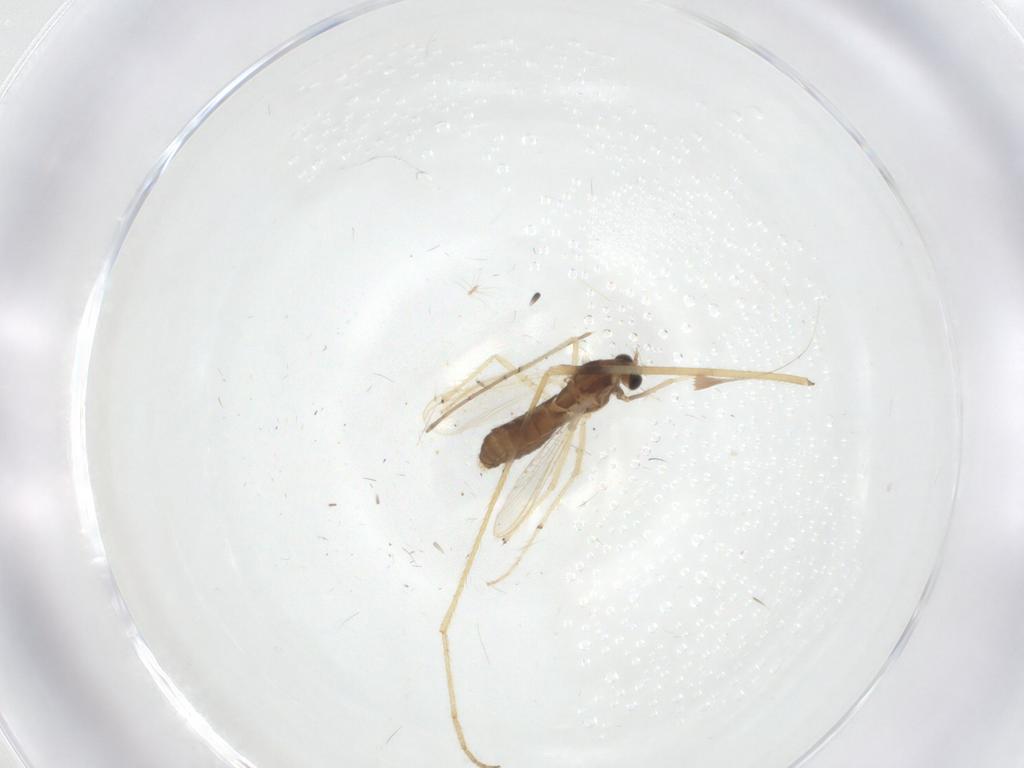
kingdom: Animalia
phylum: Arthropoda
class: Insecta
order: Diptera
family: Chironomidae
